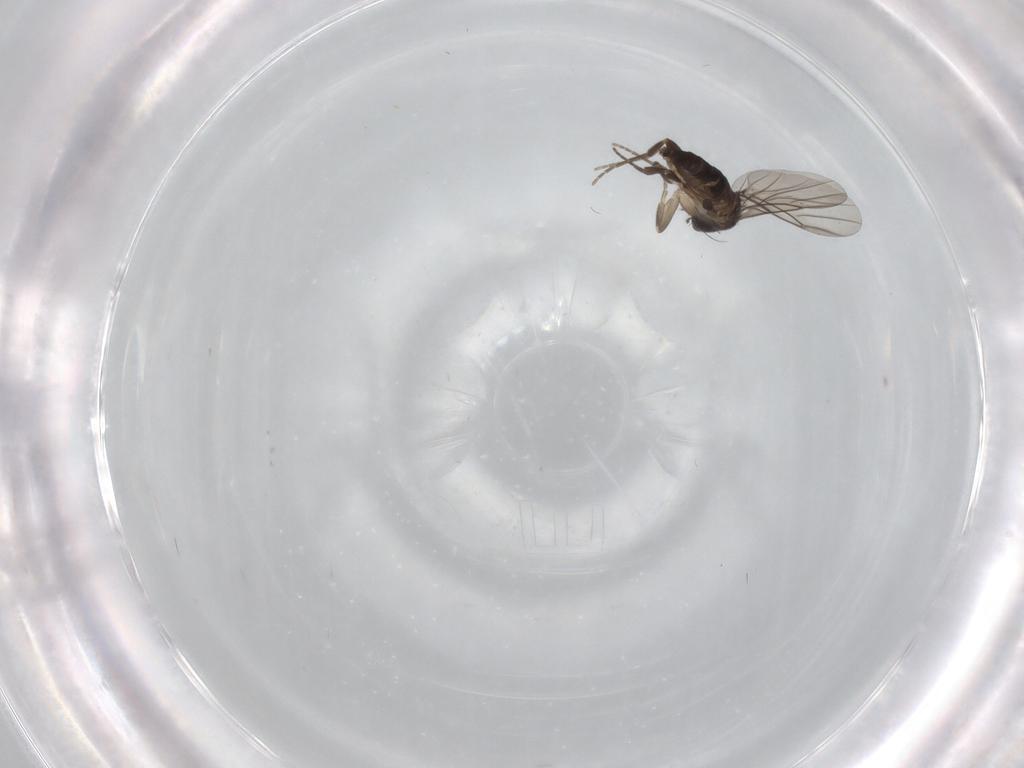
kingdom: Animalia
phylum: Arthropoda
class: Insecta
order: Diptera
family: Phoridae
